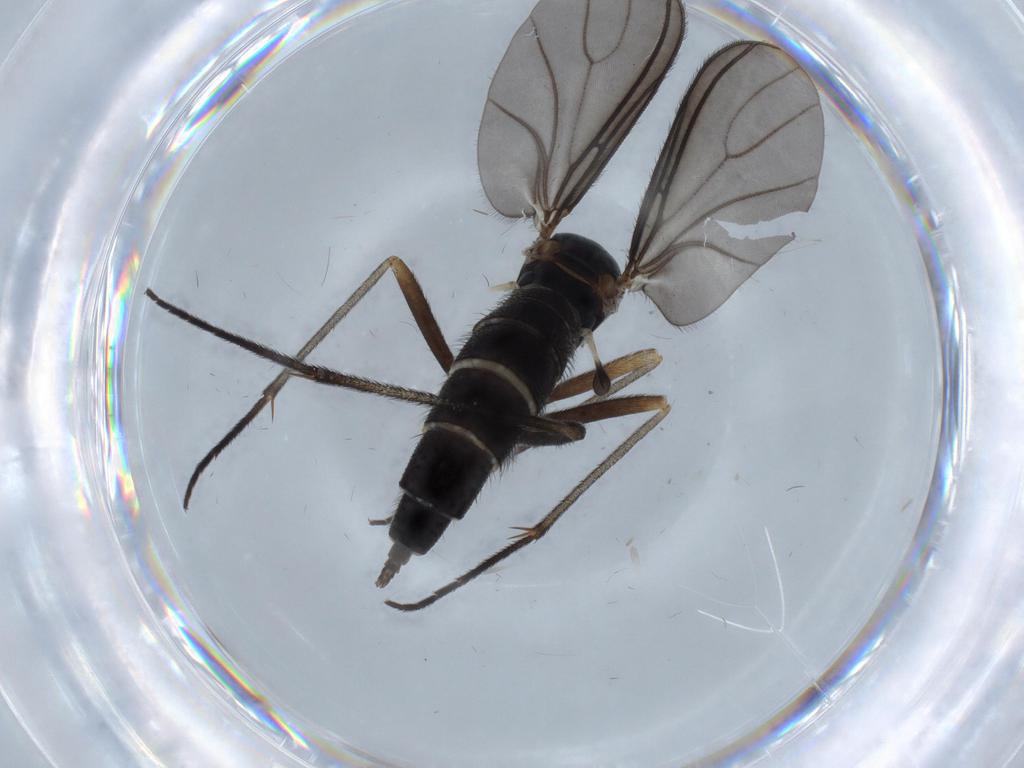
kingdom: Animalia
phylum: Arthropoda
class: Insecta
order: Diptera
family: Sciaridae
